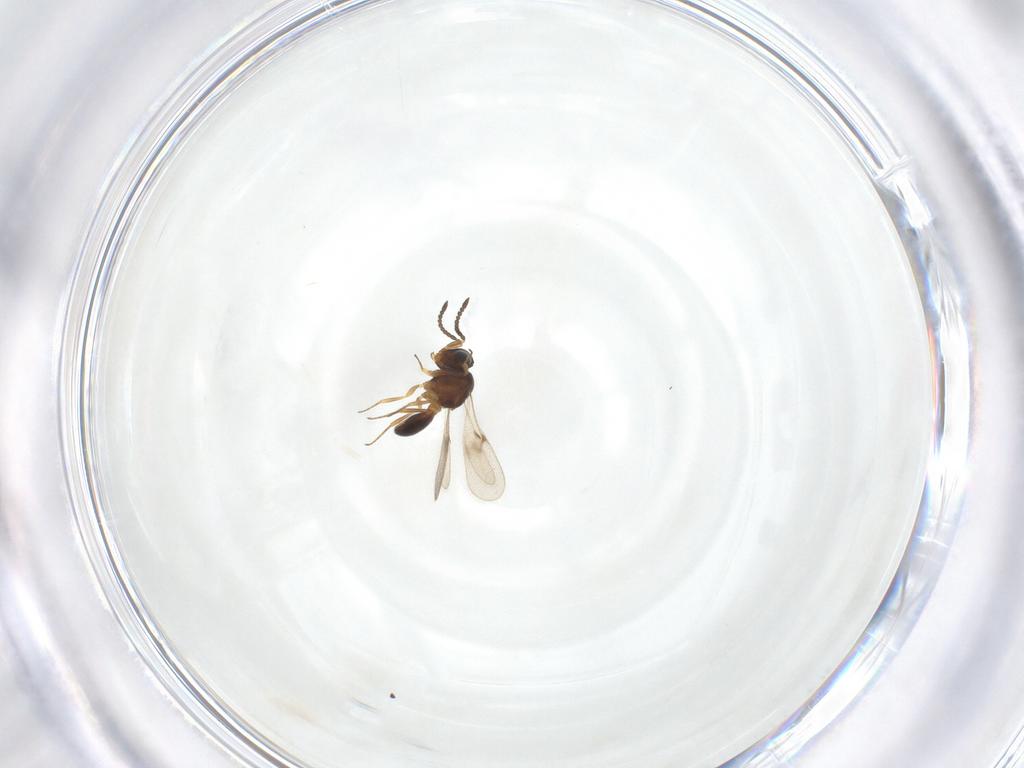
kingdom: Animalia
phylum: Arthropoda
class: Arachnida
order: Araneae
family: Pholcidae
